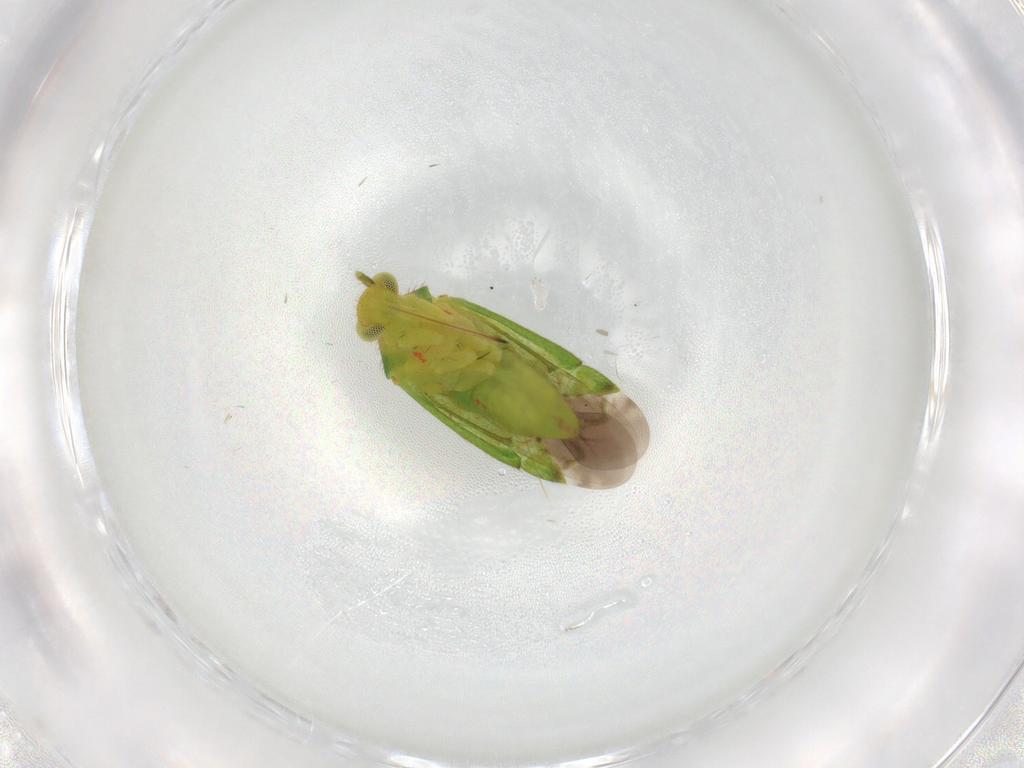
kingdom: Animalia
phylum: Arthropoda
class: Insecta
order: Hemiptera
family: Miridae
